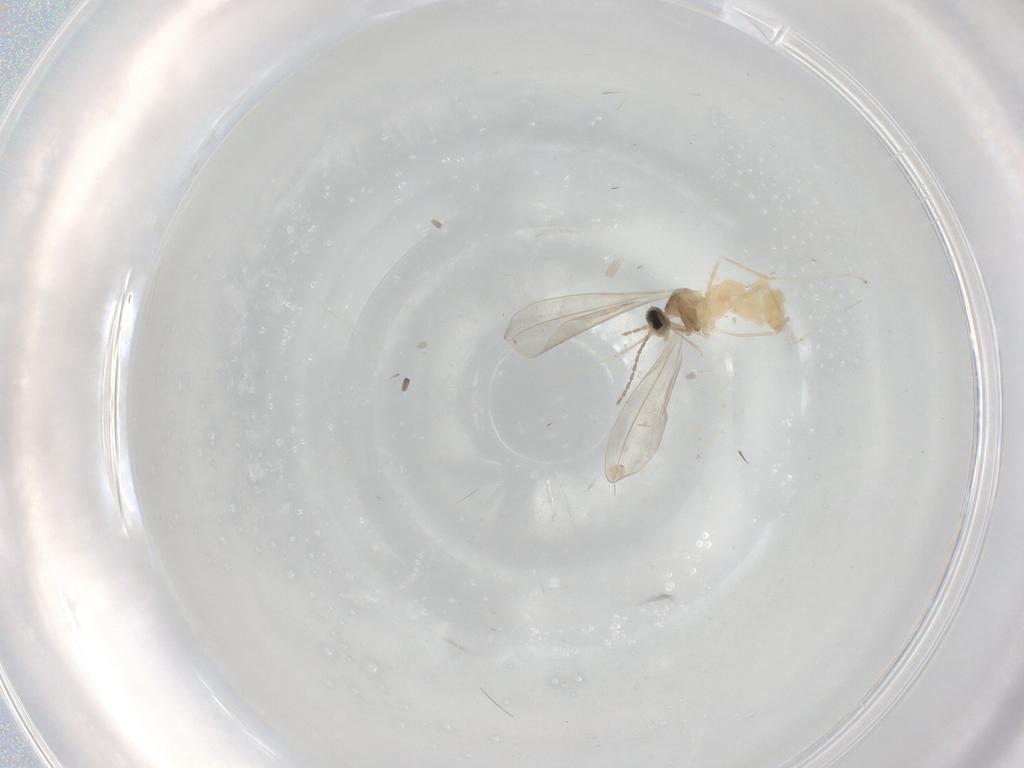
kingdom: Animalia
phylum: Arthropoda
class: Insecta
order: Diptera
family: Cecidomyiidae
